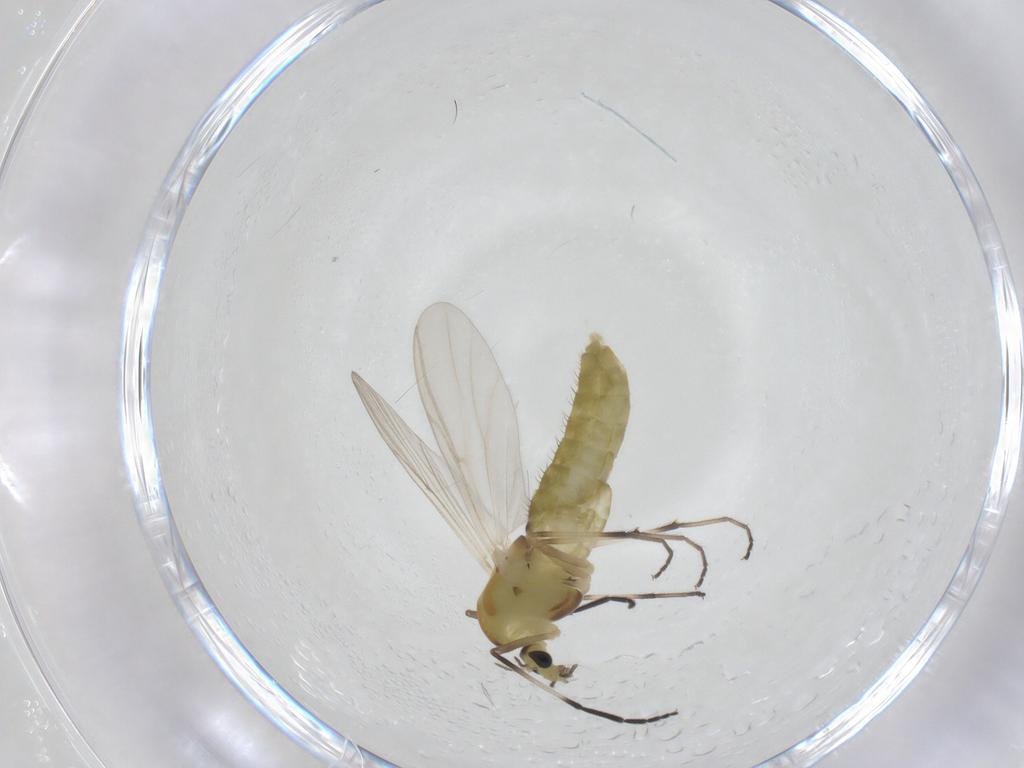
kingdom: Animalia
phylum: Arthropoda
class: Insecta
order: Diptera
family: Chironomidae
